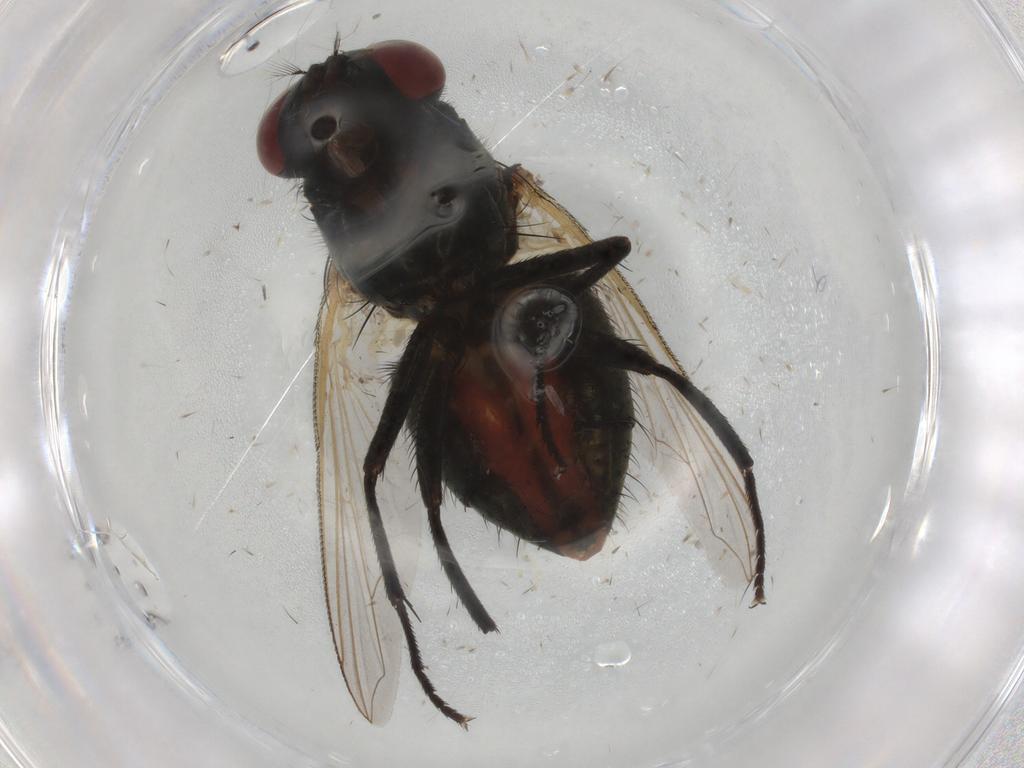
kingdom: Animalia
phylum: Arthropoda
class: Insecta
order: Diptera
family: Muscidae
